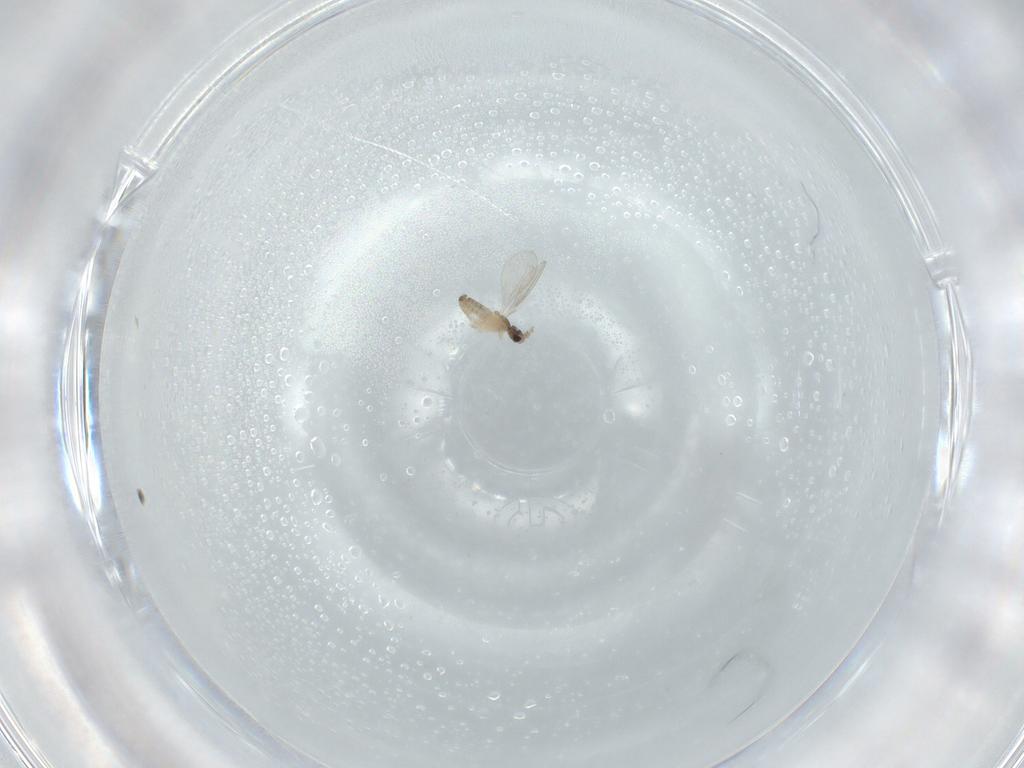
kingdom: Animalia
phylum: Arthropoda
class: Insecta
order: Diptera
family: Cecidomyiidae
